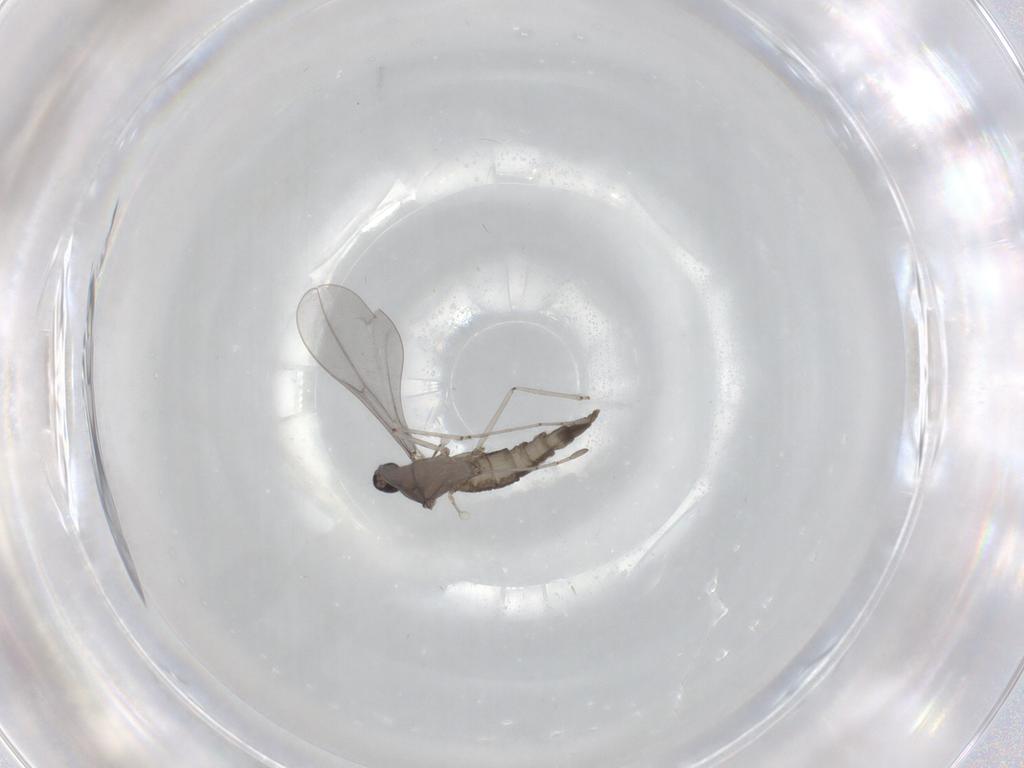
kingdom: Animalia
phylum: Arthropoda
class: Insecta
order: Diptera
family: Cecidomyiidae
